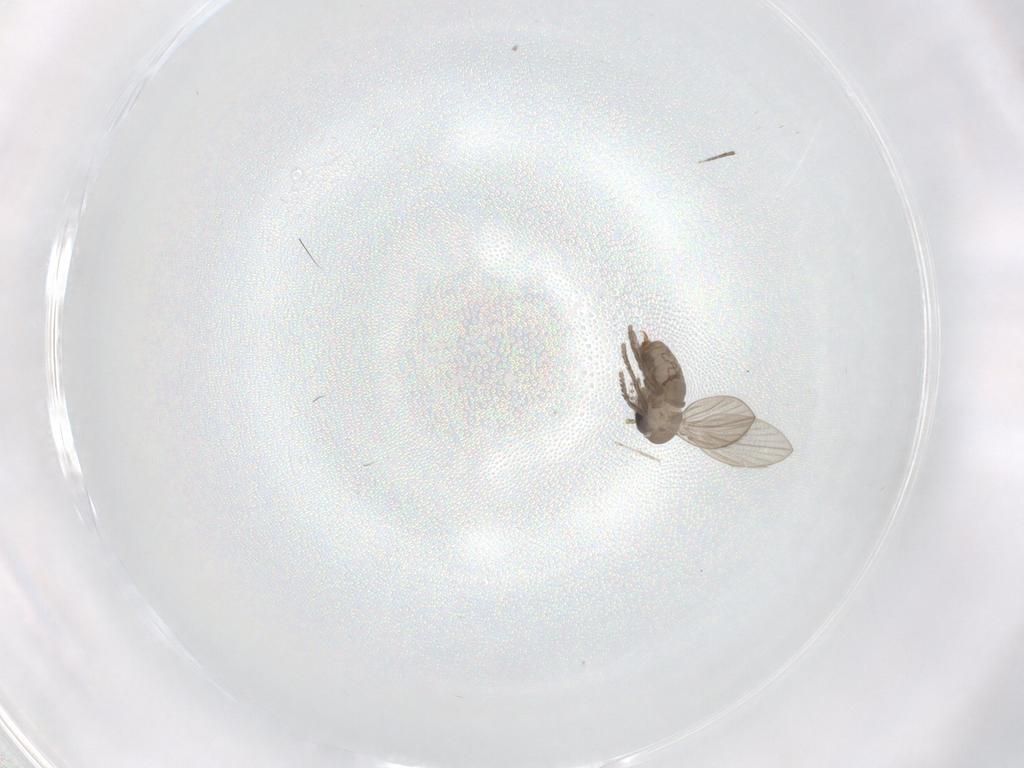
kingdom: Animalia
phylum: Arthropoda
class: Insecta
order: Diptera
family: Psychodidae
